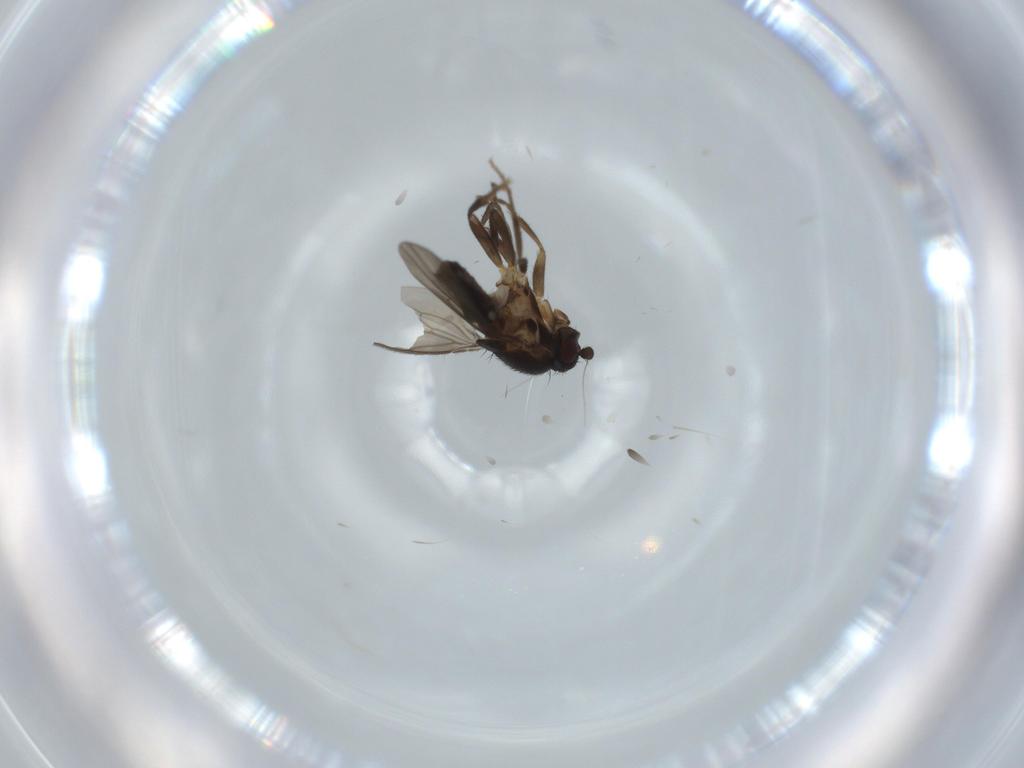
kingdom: Animalia
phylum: Arthropoda
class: Insecta
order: Diptera
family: Sphaeroceridae
